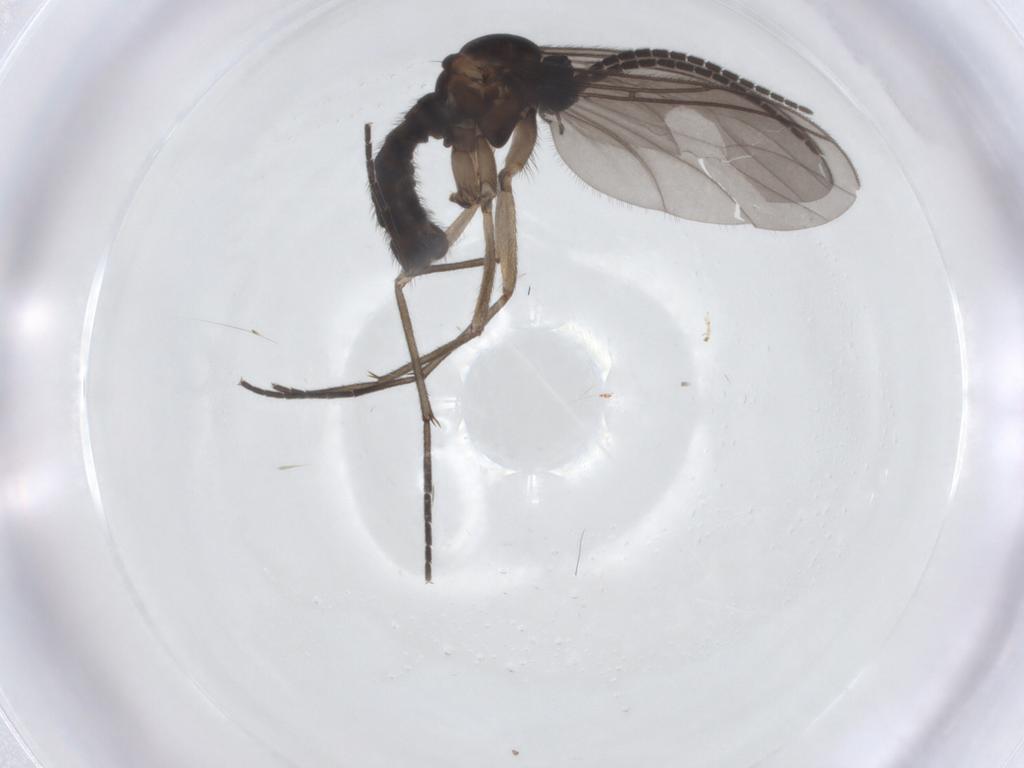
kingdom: Animalia
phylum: Arthropoda
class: Insecta
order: Diptera
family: Sciaridae
